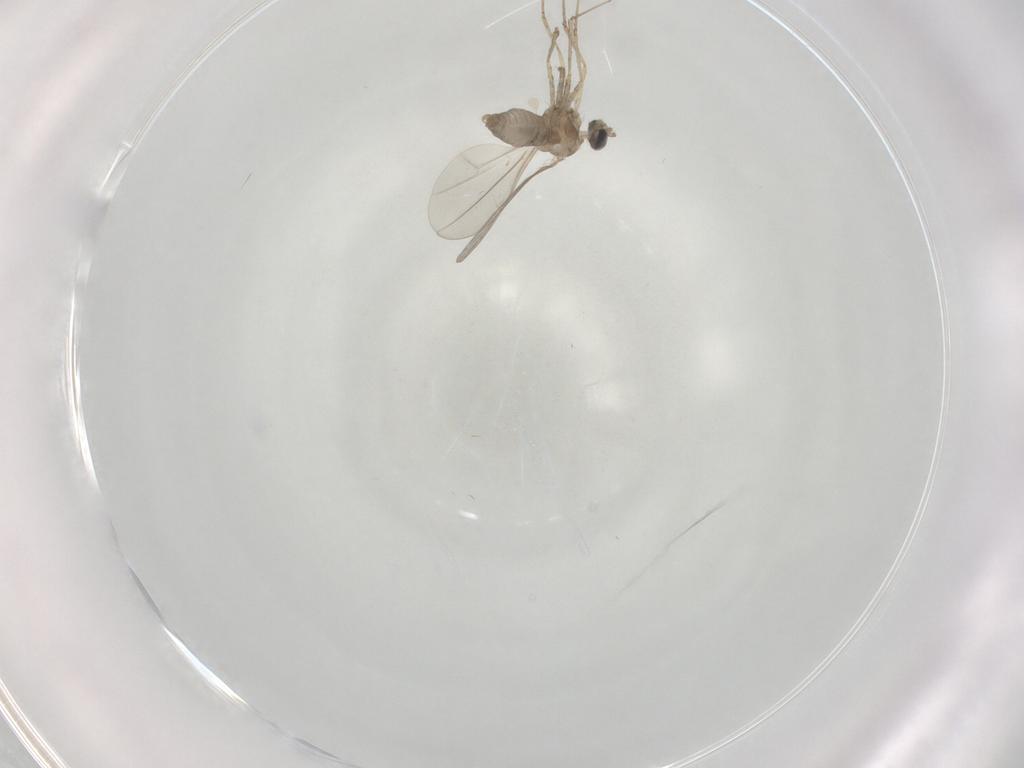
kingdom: Animalia
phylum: Arthropoda
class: Insecta
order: Diptera
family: Cecidomyiidae
